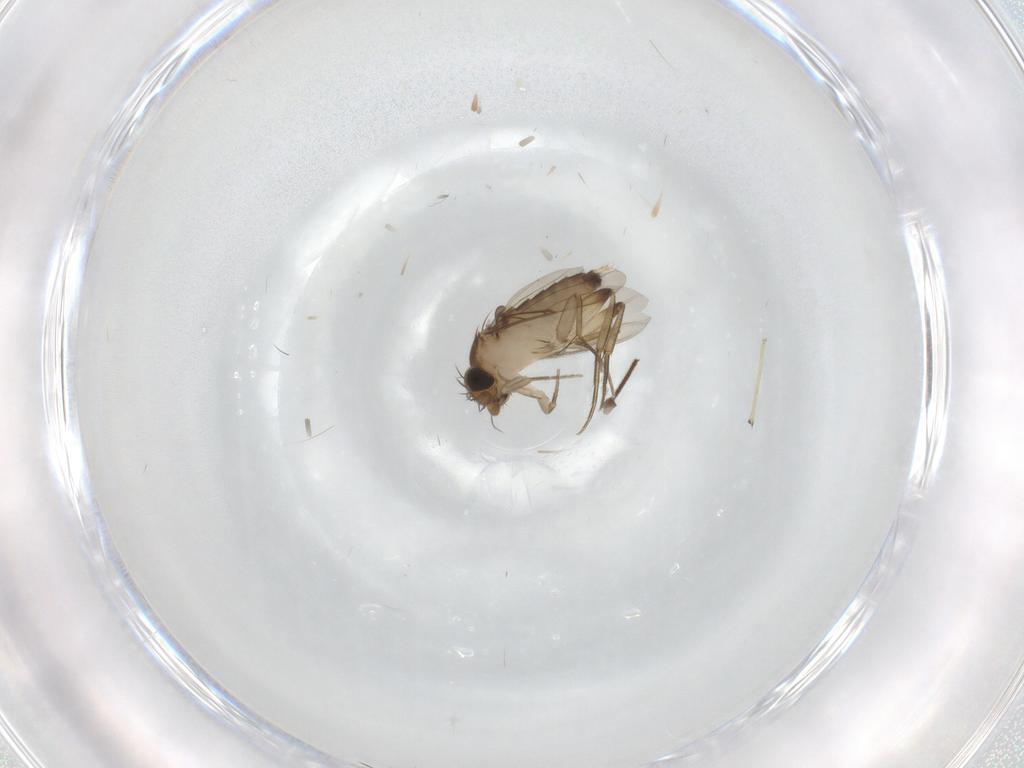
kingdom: Animalia
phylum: Arthropoda
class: Insecta
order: Diptera
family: Chironomidae
